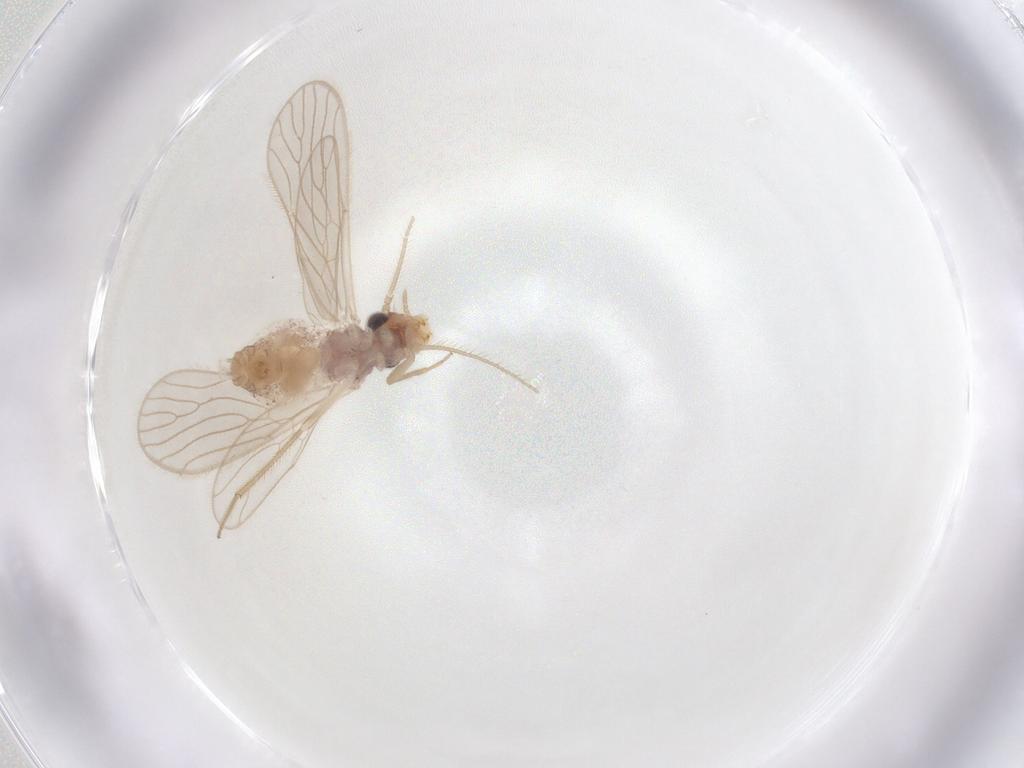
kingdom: Animalia
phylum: Arthropoda
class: Insecta
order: Psocodea
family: Dolabellopsocidae
